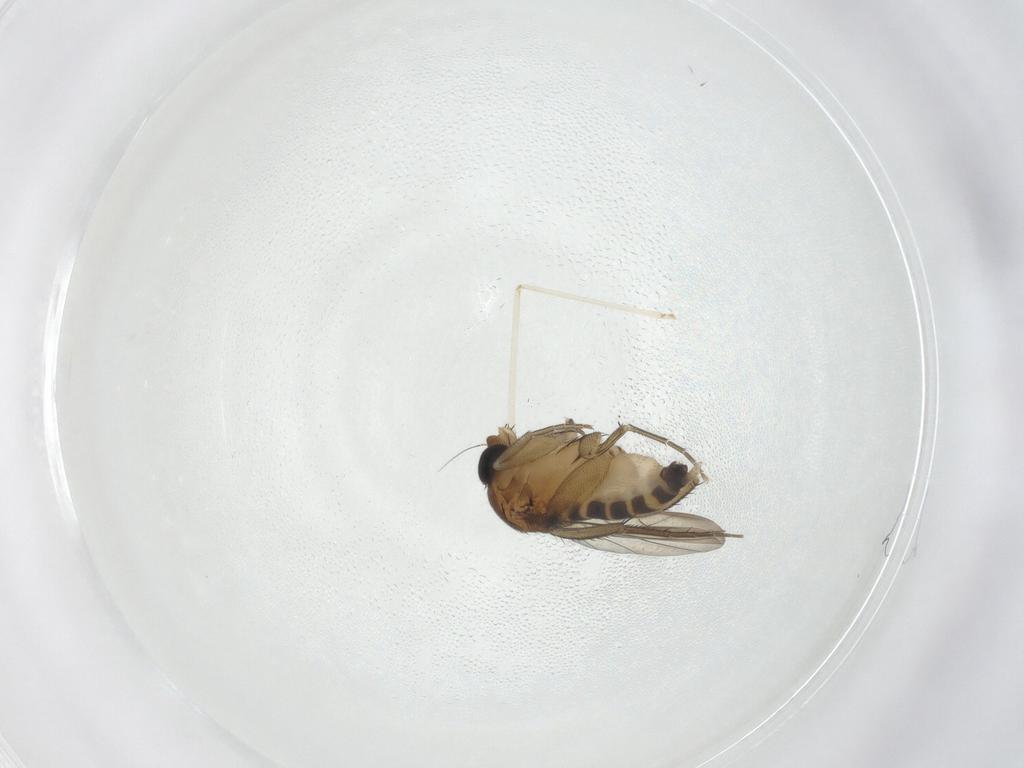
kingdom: Animalia
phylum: Arthropoda
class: Insecta
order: Diptera
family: Phoridae
